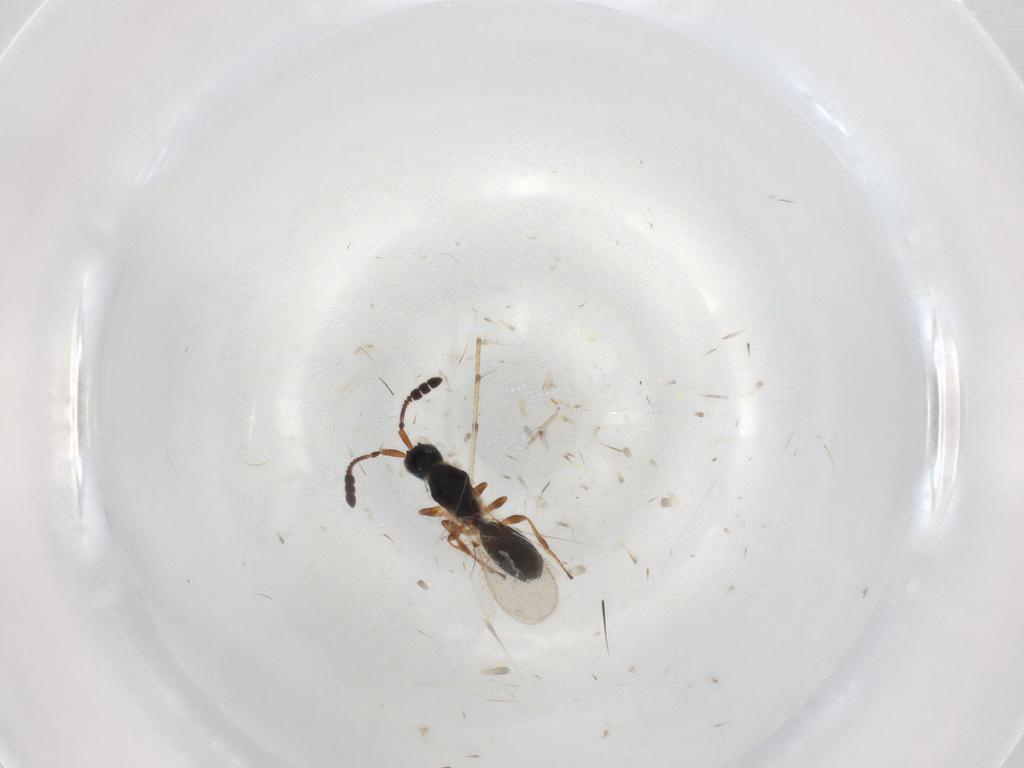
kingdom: Animalia
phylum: Arthropoda
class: Insecta
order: Hymenoptera
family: Diapriidae
